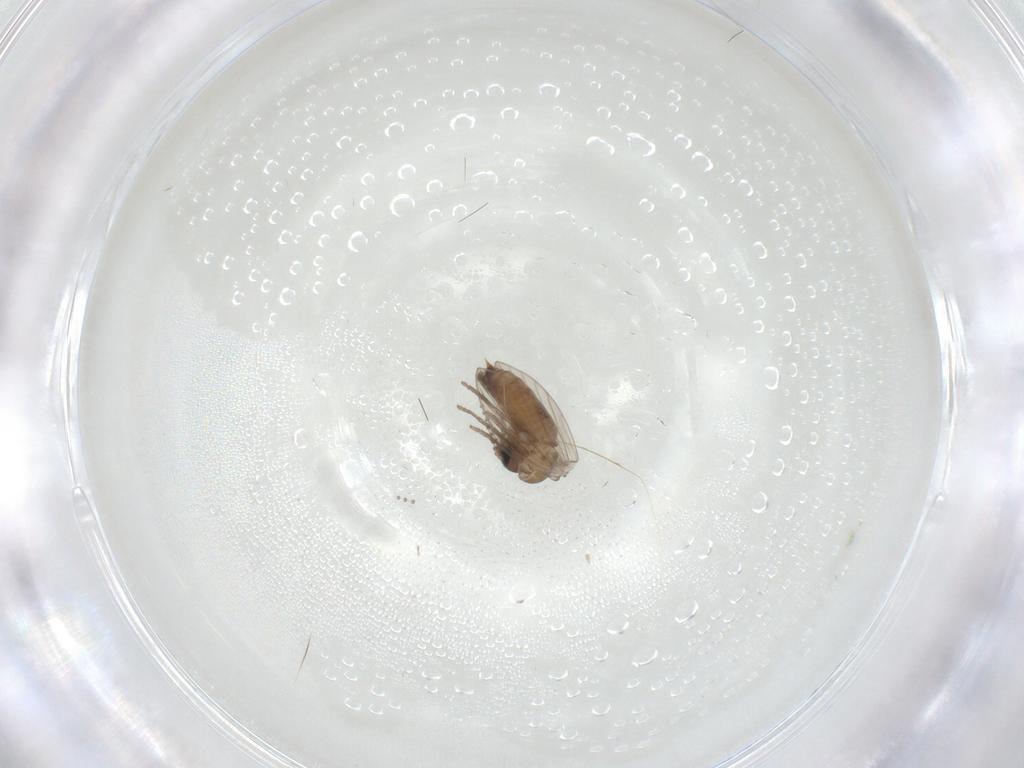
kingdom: Animalia
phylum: Arthropoda
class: Insecta
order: Diptera
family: Psychodidae
